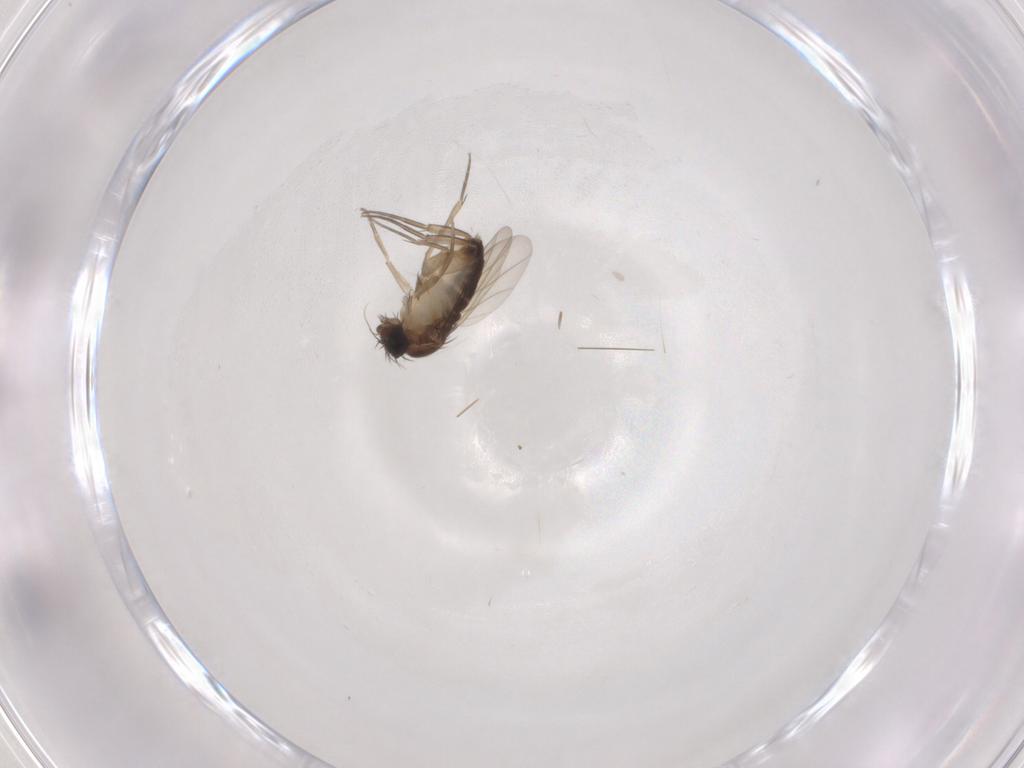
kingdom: Animalia
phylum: Arthropoda
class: Insecta
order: Diptera
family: Phoridae
